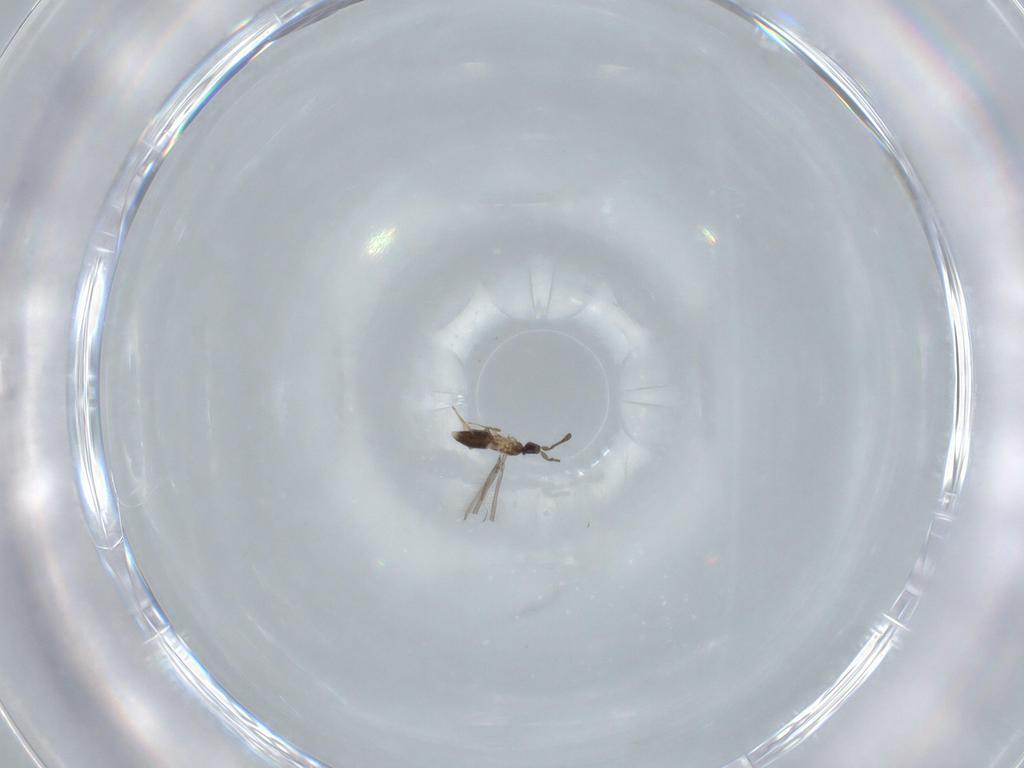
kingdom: Animalia
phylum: Arthropoda
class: Insecta
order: Hymenoptera
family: Mymaridae
